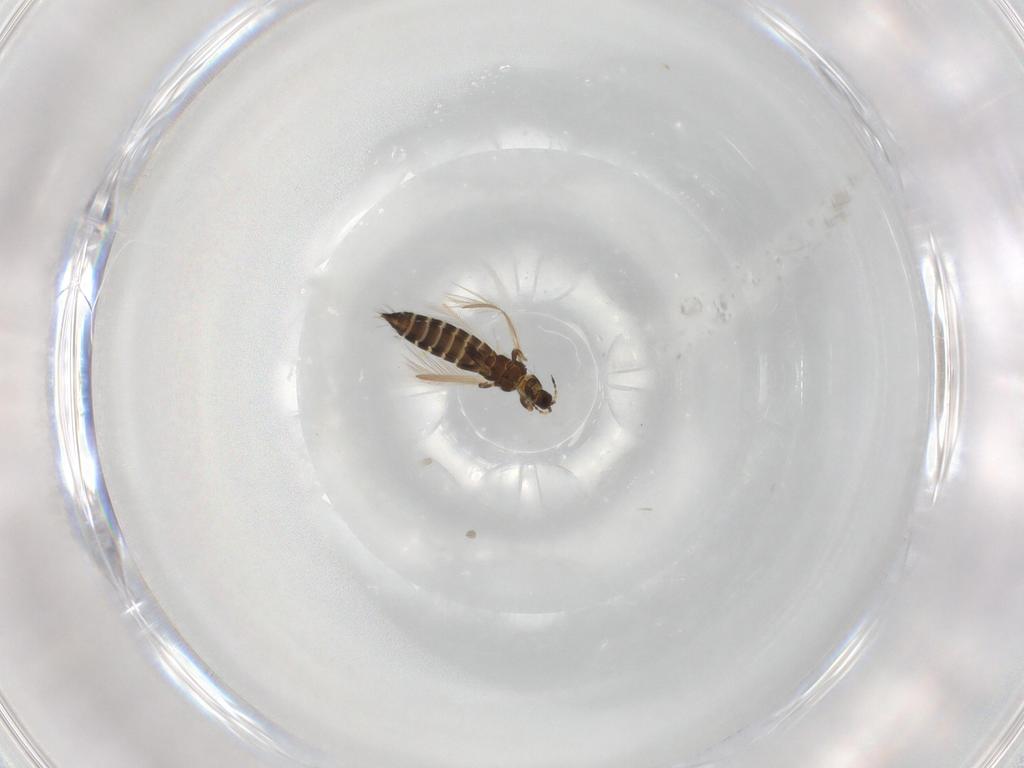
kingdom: Animalia
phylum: Arthropoda
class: Insecta
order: Thysanoptera
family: Thripidae
